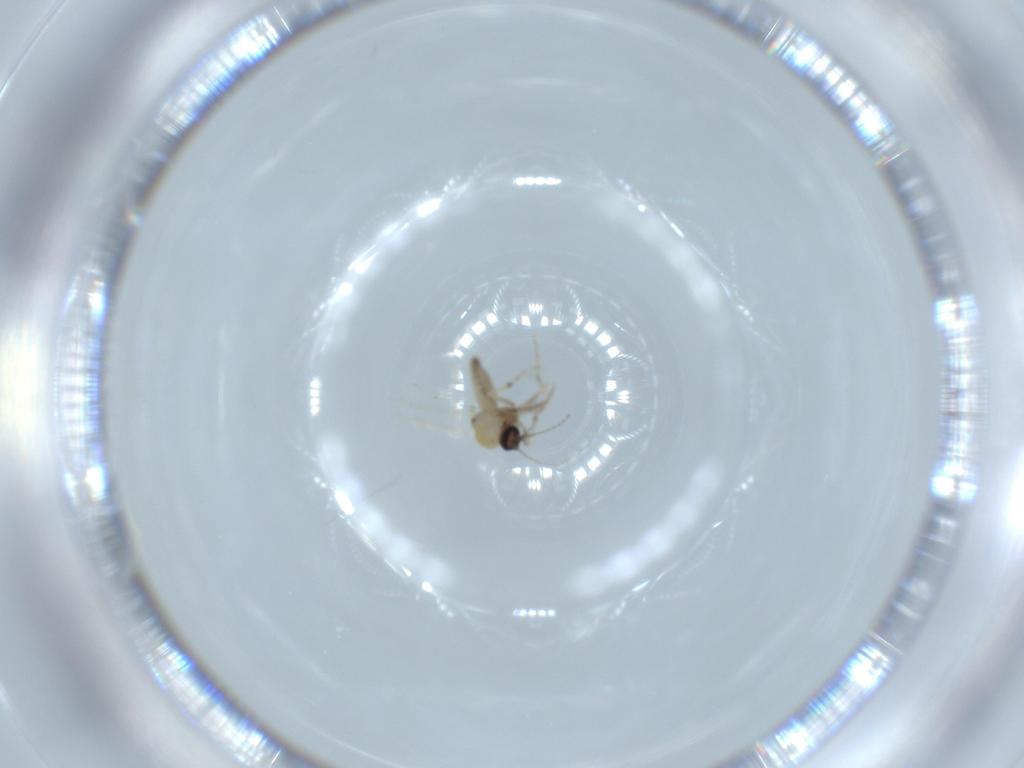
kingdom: Animalia
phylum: Arthropoda
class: Insecta
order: Diptera
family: Ceratopogonidae
